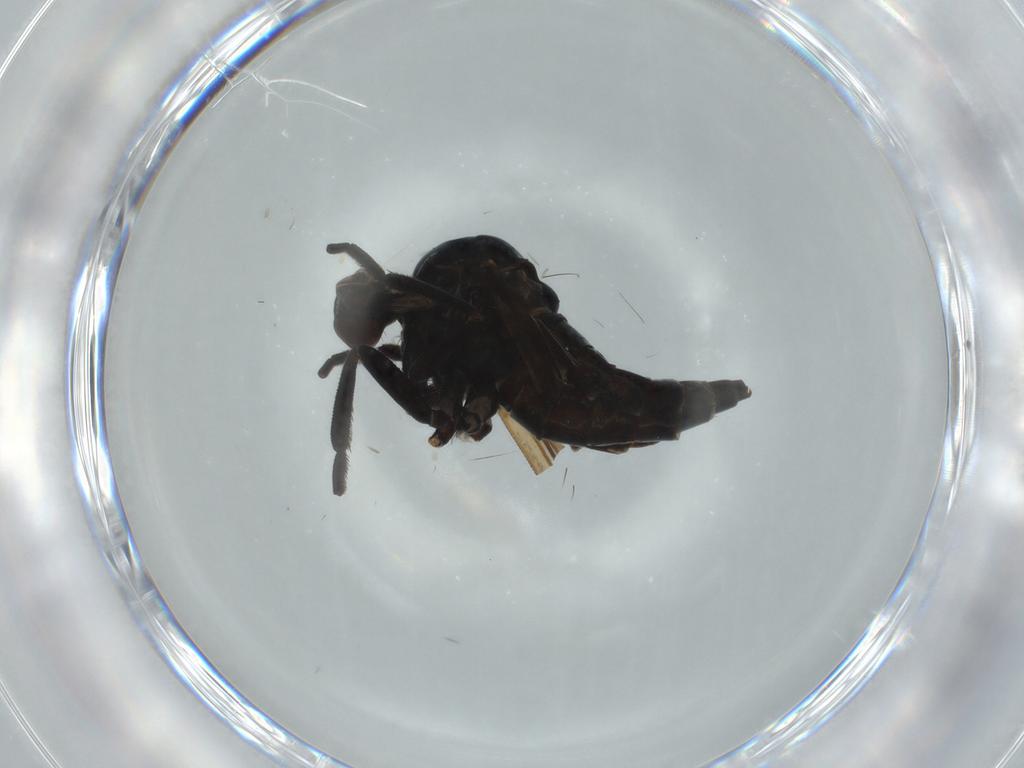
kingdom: Animalia
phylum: Arthropoda
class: Insecta
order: Diptera
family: Empididae
